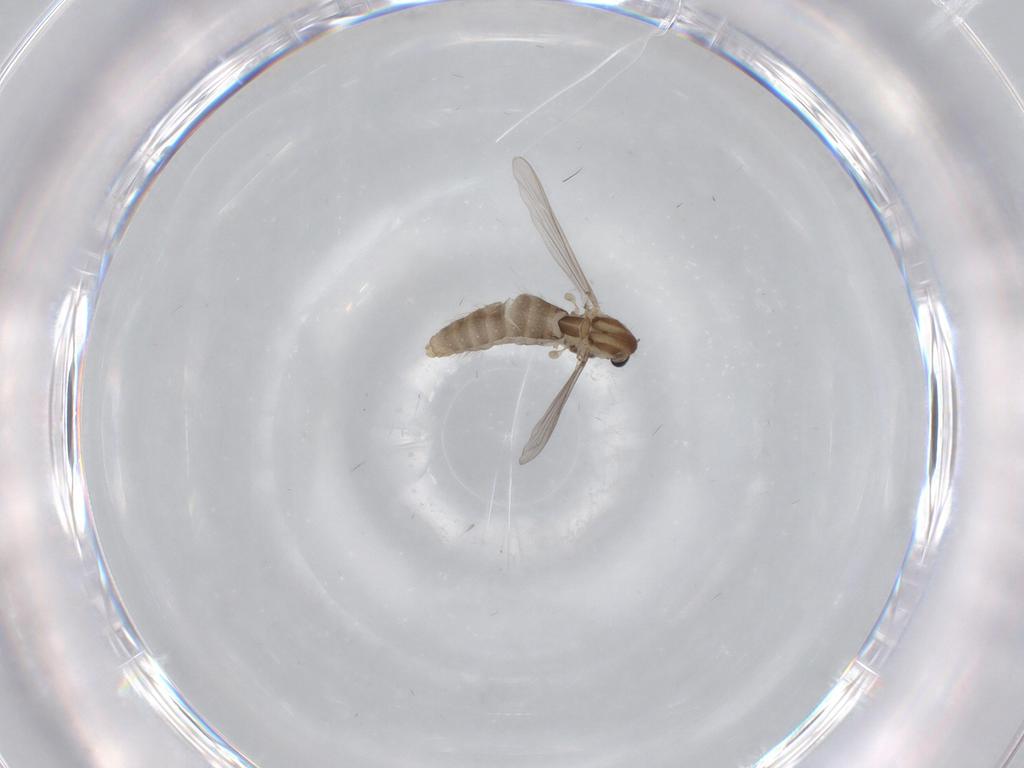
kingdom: Animalia
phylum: Arthropoda
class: Insecta
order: Diptera
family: Chironomidae
